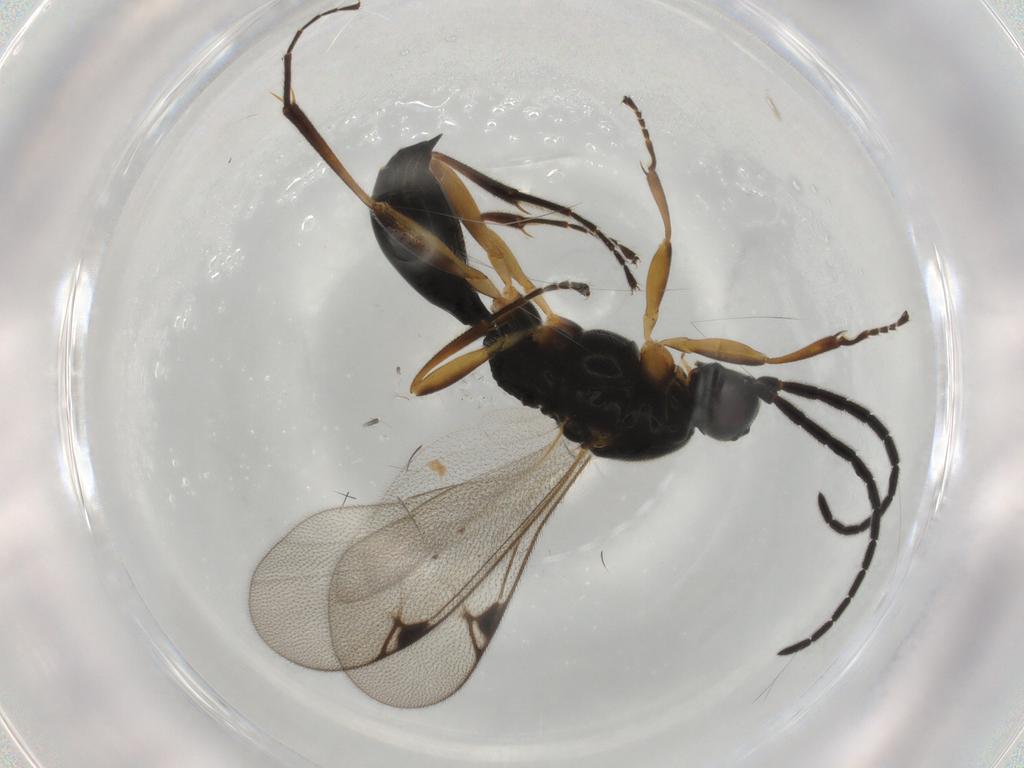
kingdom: Animalia
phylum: Arthropoda
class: Insecta
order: Hymenoptera
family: Proctotrupidae
